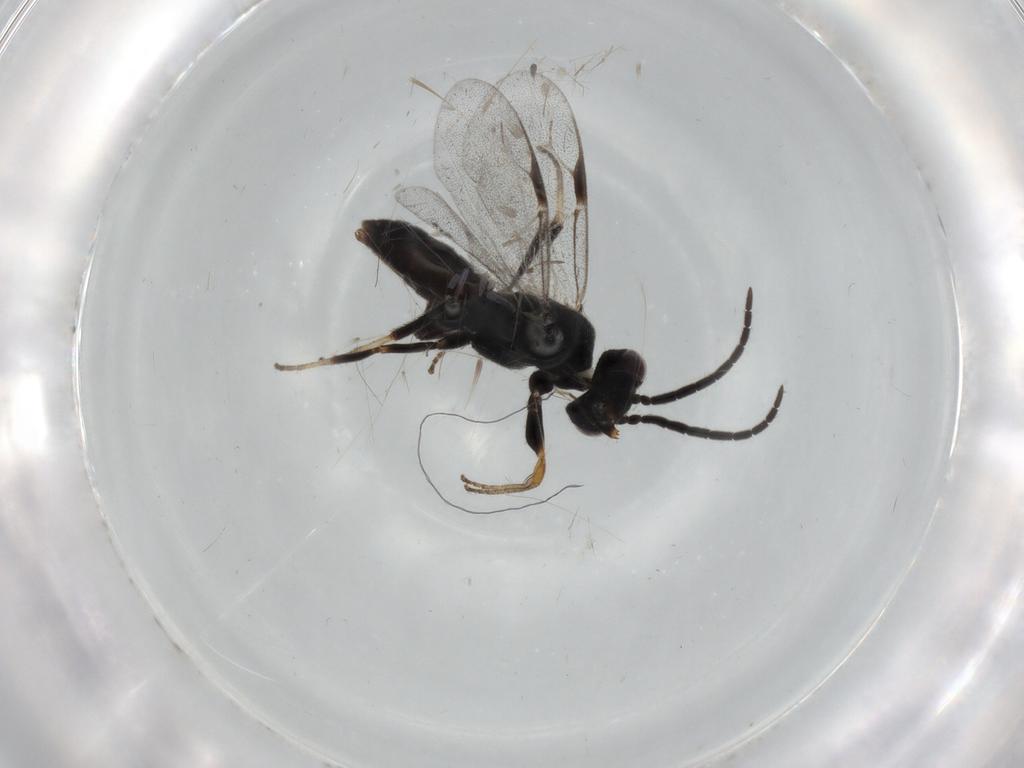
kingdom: Animalia
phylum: Arthropoda
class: Insecta
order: Hymenoptera
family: Dryinidae
